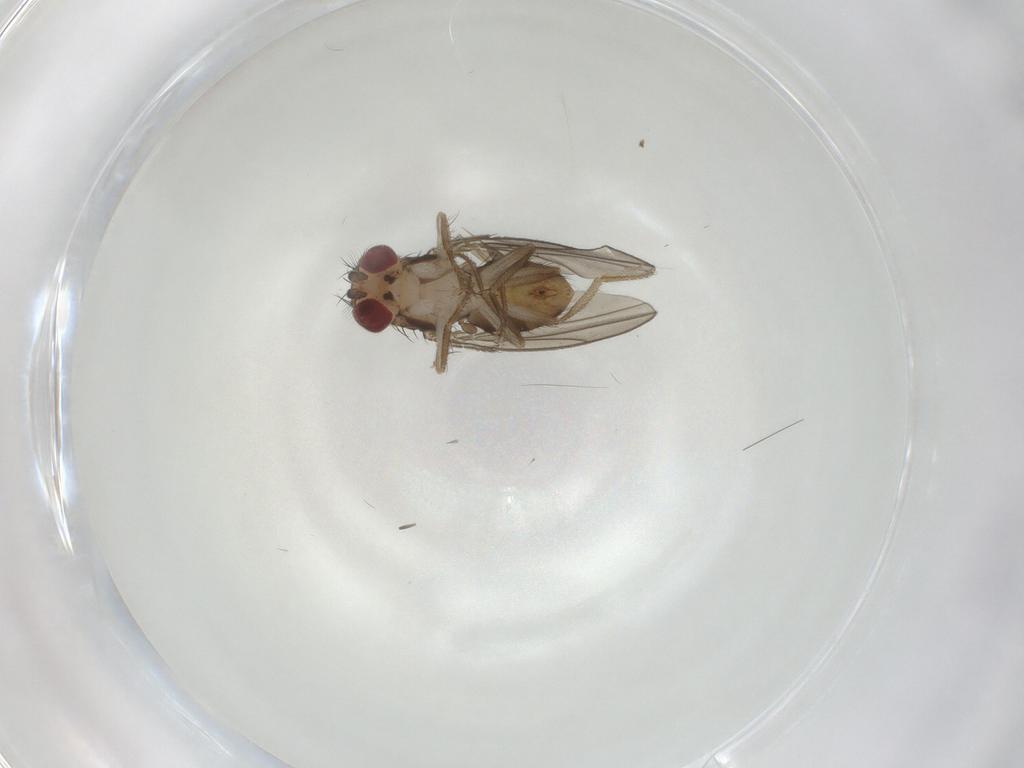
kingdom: Animalia
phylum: Arthropoda
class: Insecta
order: Diptera
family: Chironomidae
